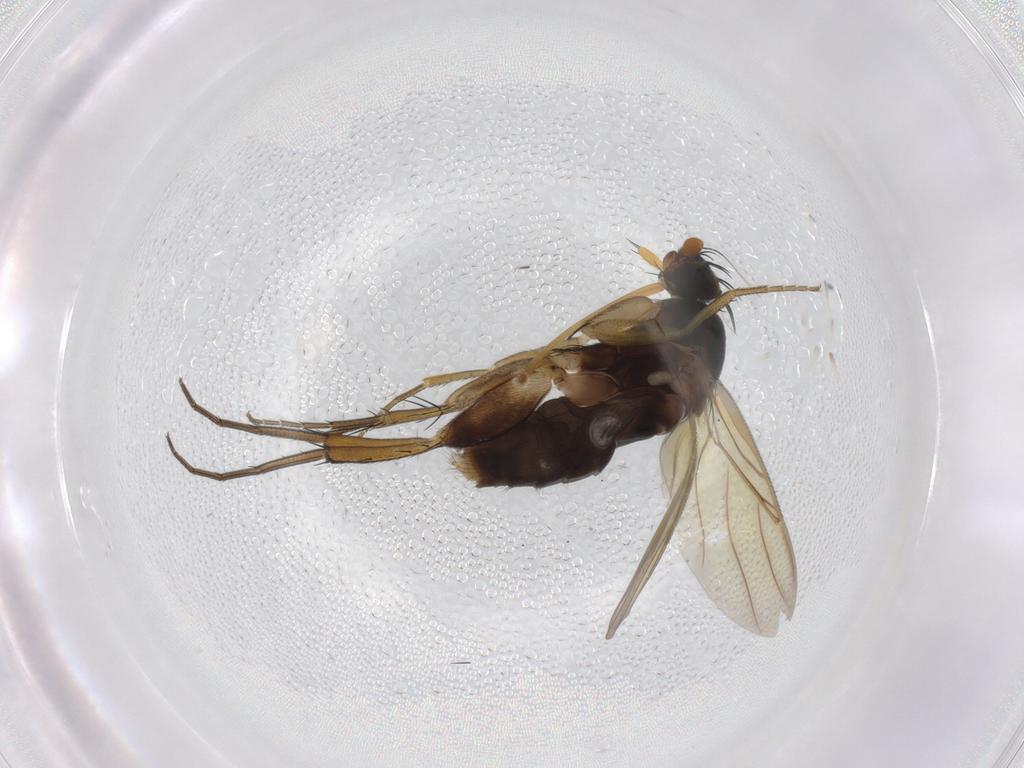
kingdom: Animalia
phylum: Arthropoda
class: Insecta
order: Diptera
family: Phoridae
